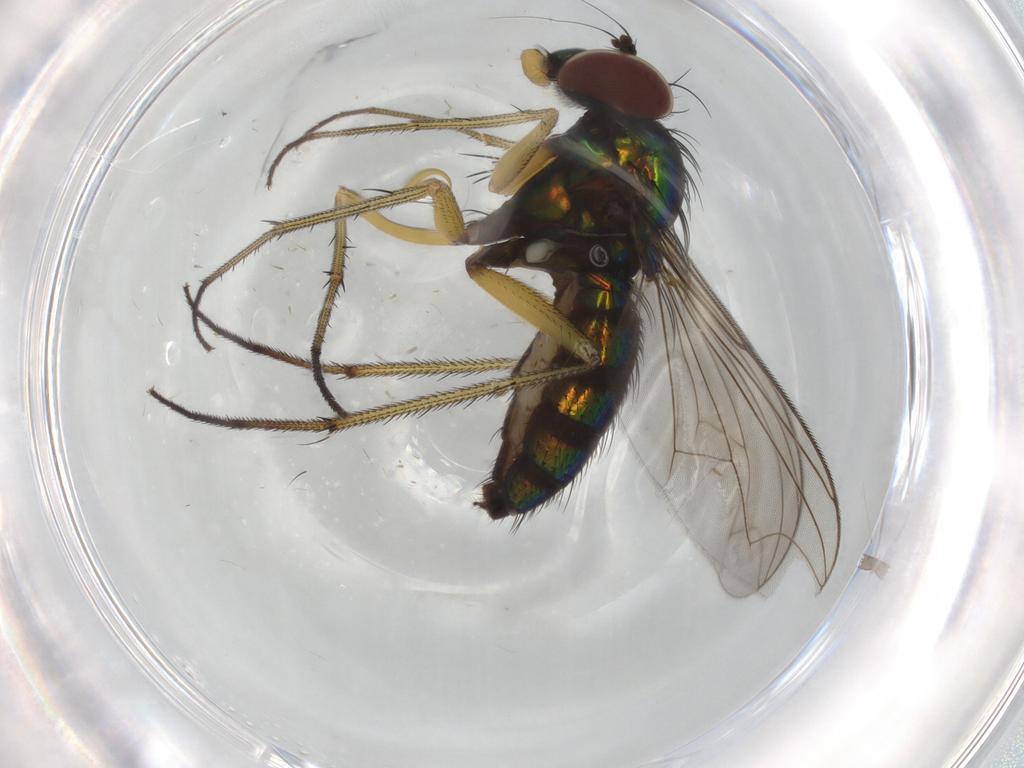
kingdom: Animalia
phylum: Arthropoda
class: Insecta
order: Diptera
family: Dolichopodidae
